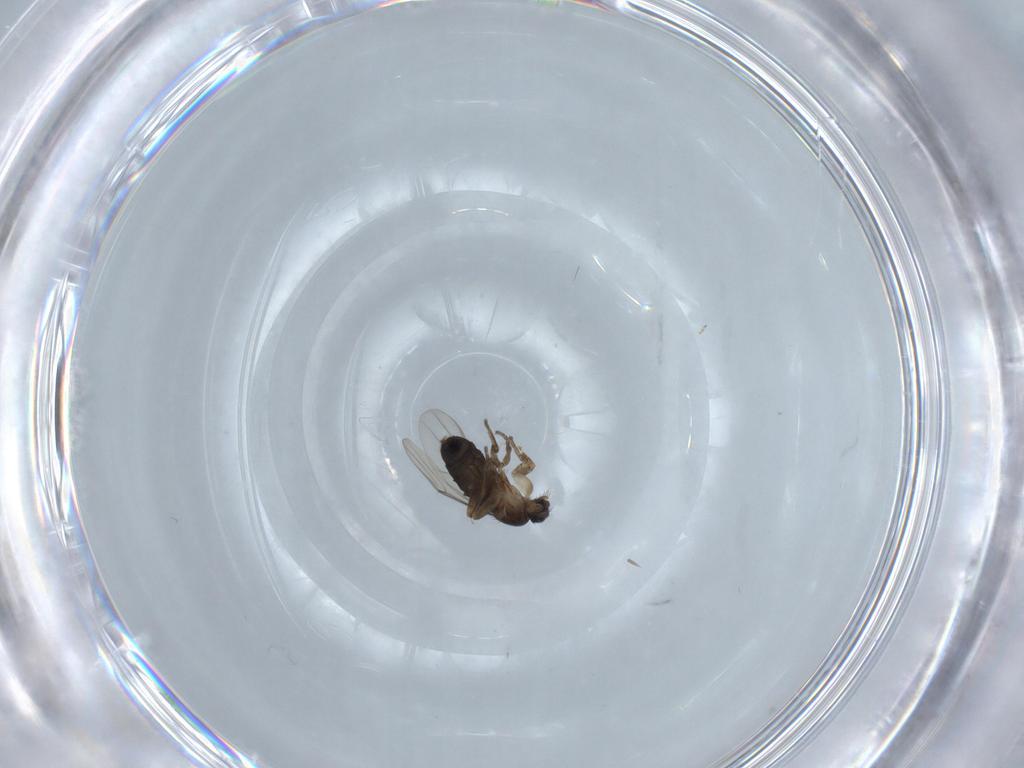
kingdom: Animalia
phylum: Arthropoda
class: Insecta
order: Diptera
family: Phoridae
